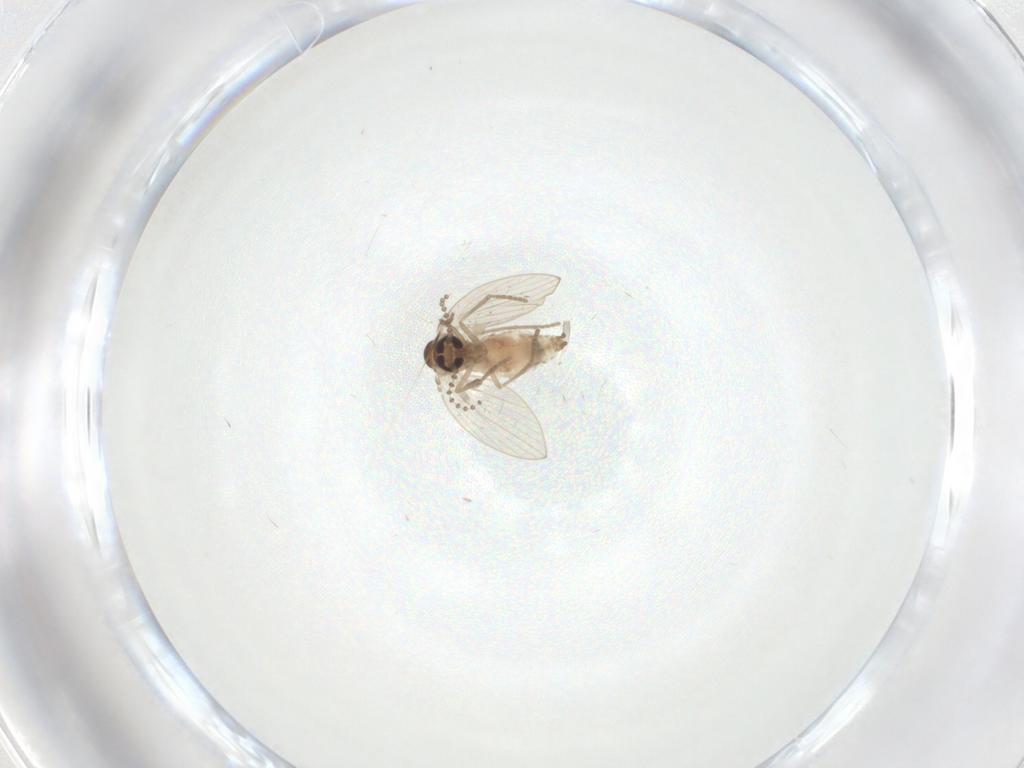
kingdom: Animalia
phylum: Arthropoda
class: Insecta
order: Diptera
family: Psychodidae
